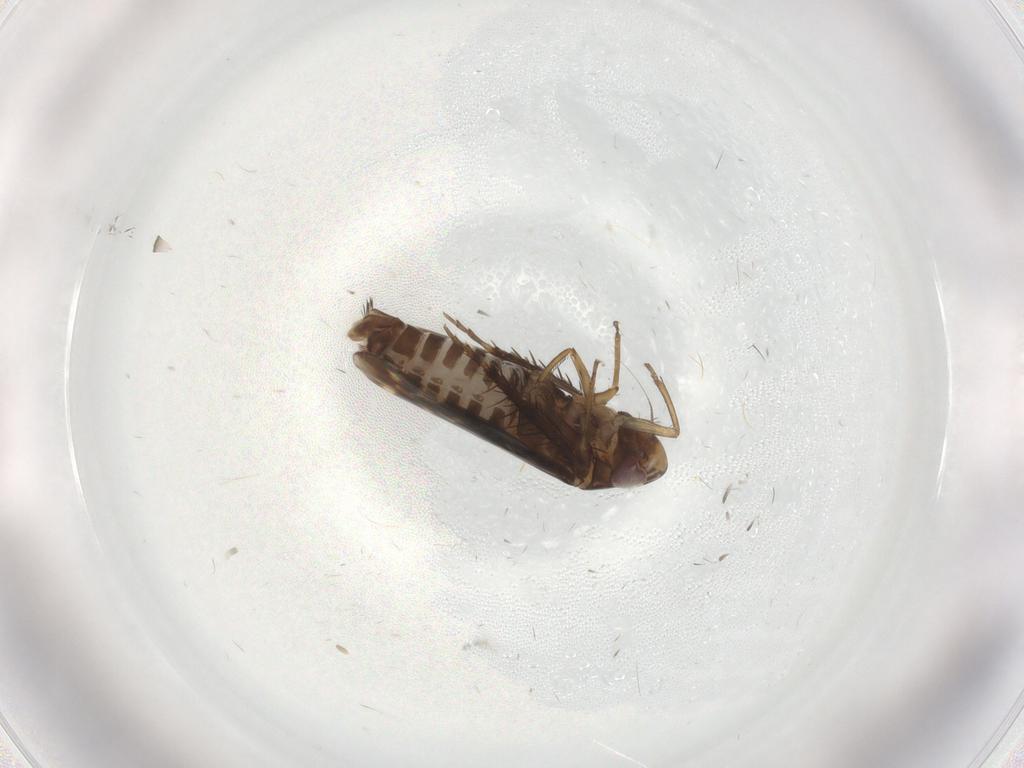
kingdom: Animalia
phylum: Arthropoda
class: Insecta
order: Hemiptera
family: Cicadellidae
